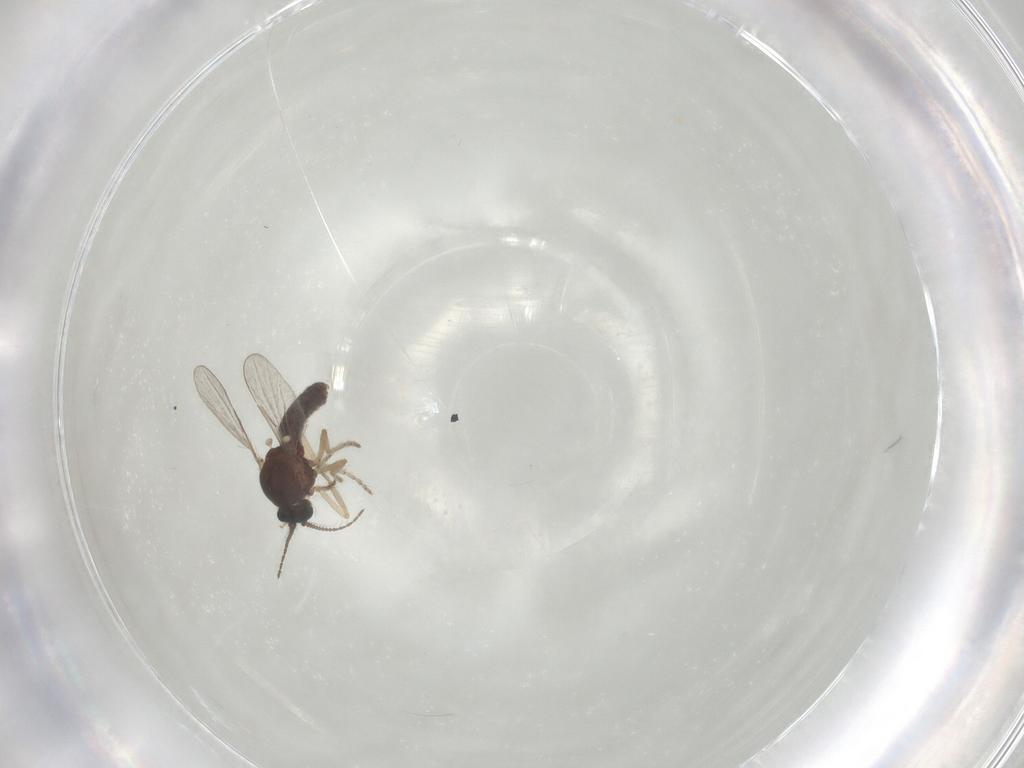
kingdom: Animalia
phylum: Arthropoda
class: Insecta
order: Diptera
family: Ceratopogonidae
